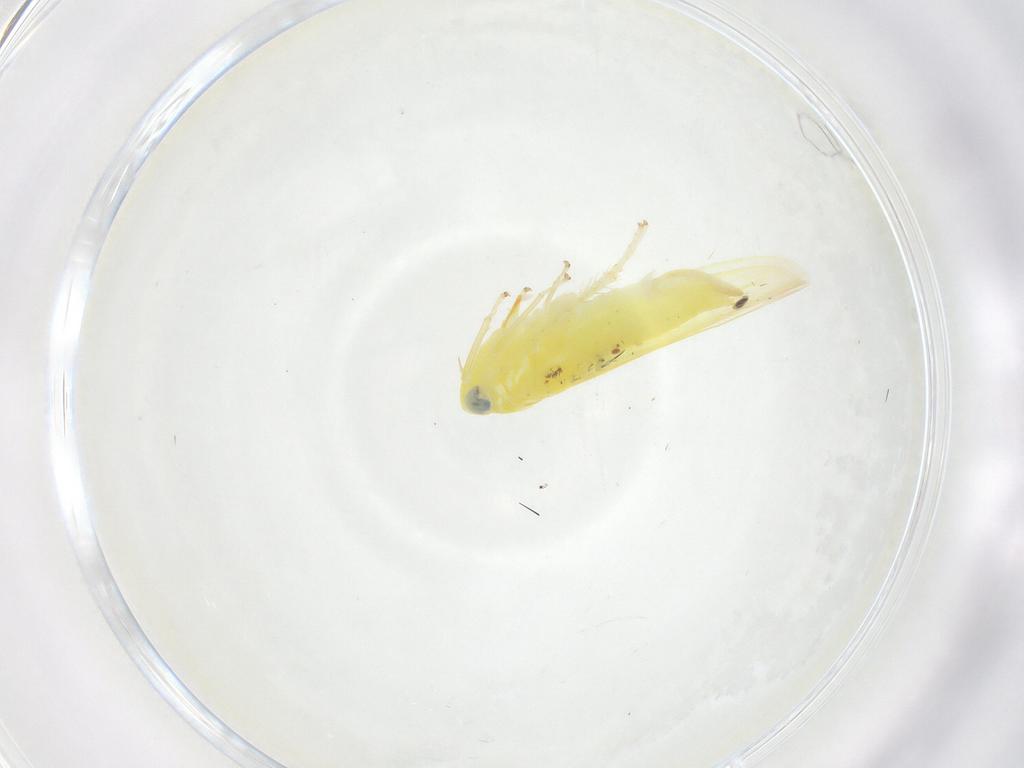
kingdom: Animalia
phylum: Arthropoda
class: Insecta
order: Hemiptera
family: Cicadellidae
